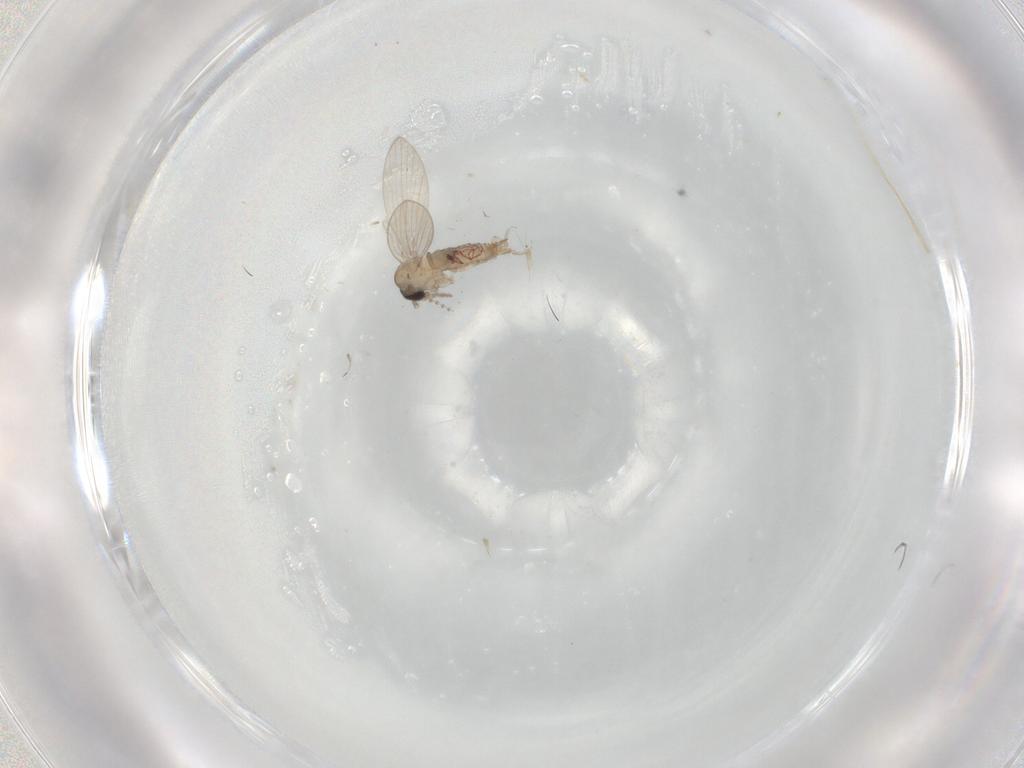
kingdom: Animalia
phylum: Arthropoda
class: Insecta
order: Diptera
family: Psychodidae
